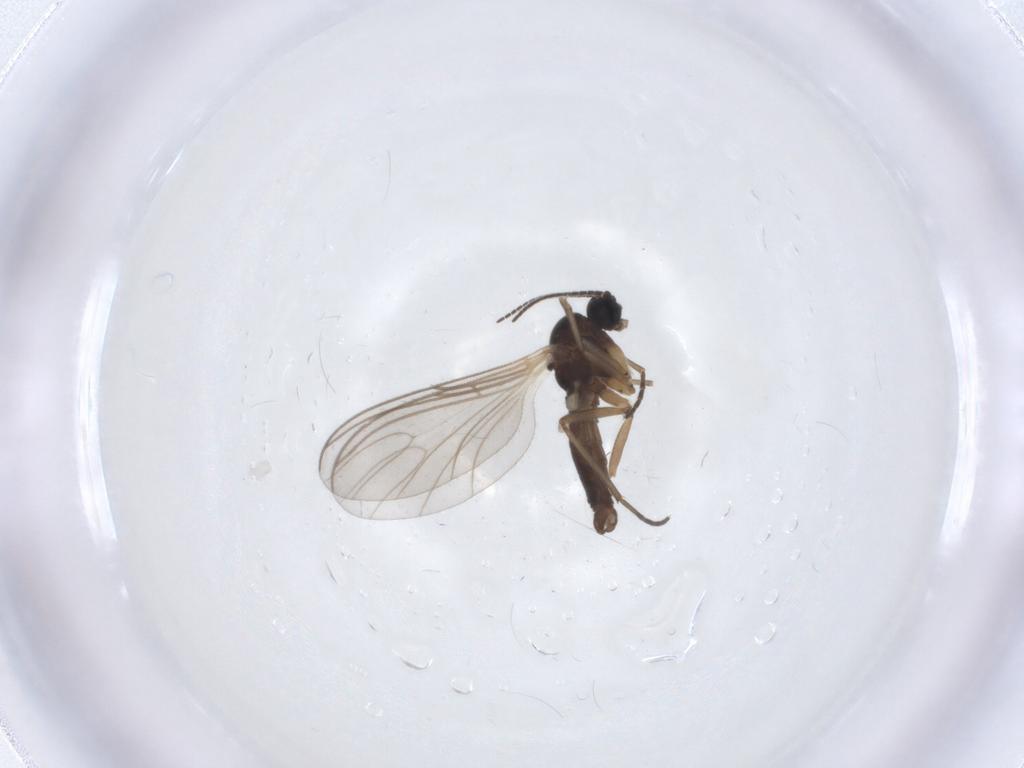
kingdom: Animalia
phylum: Arthropoda
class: Insecta
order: Diptera
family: Sciaridae
